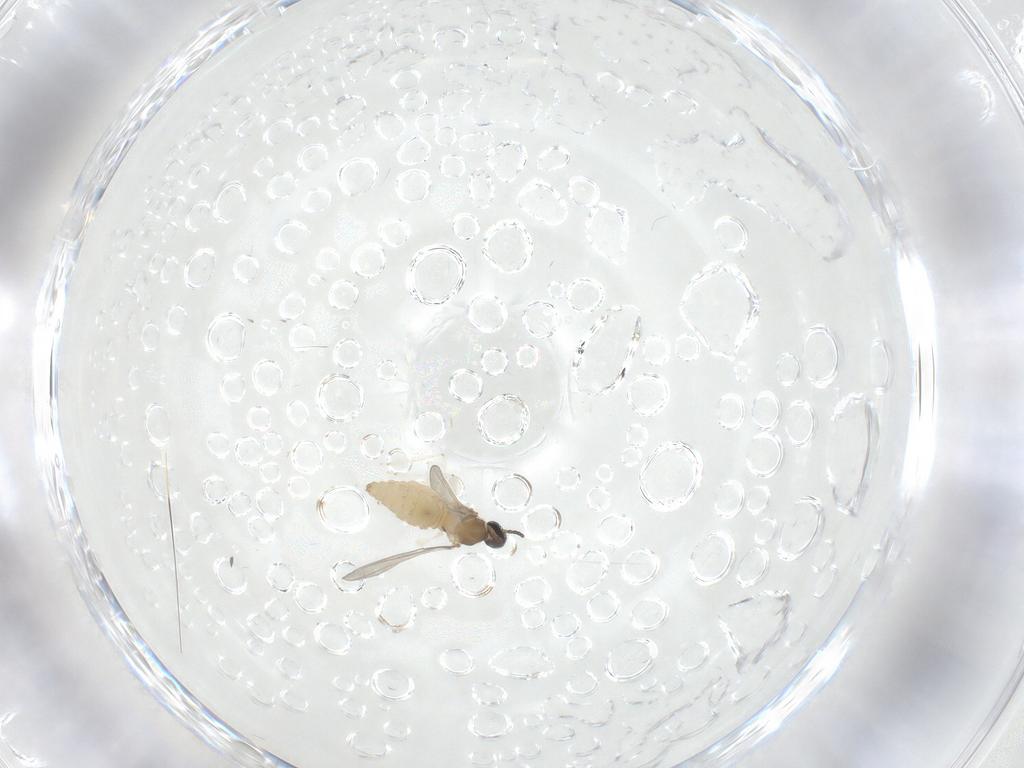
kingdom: Animalia
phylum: Arthropoda
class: Insecta
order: Diptera
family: Cecidomyiidae
